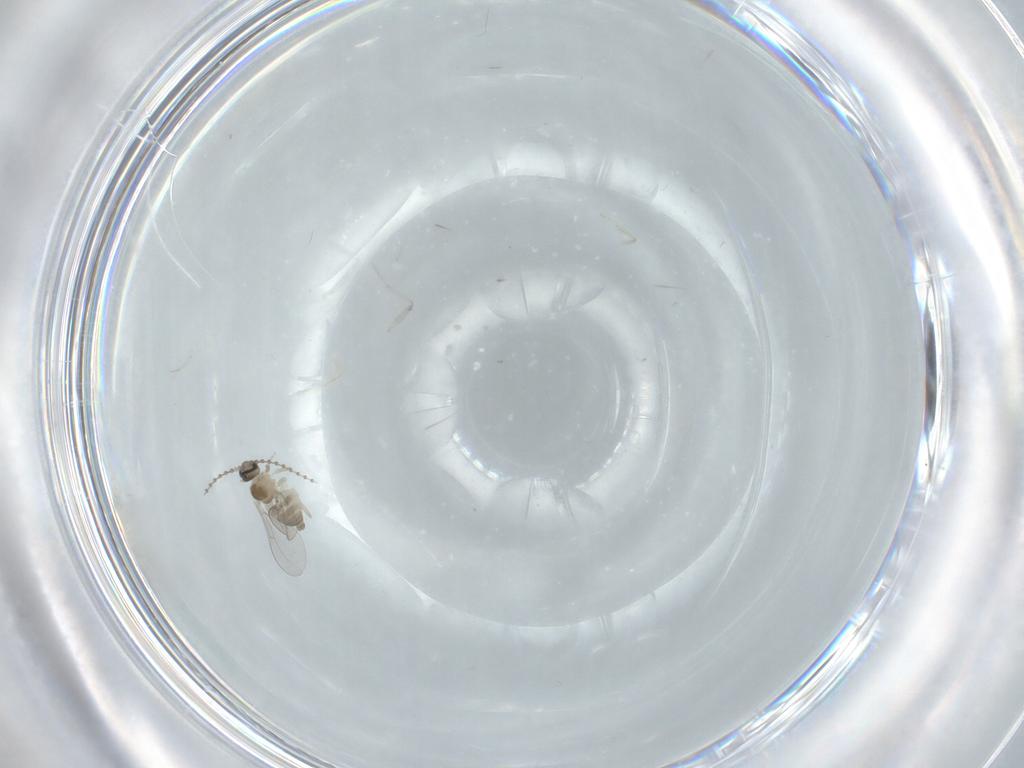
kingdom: Animalia
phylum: Arthropoda
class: Insecta
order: Diptera
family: Cecidomyiidae
